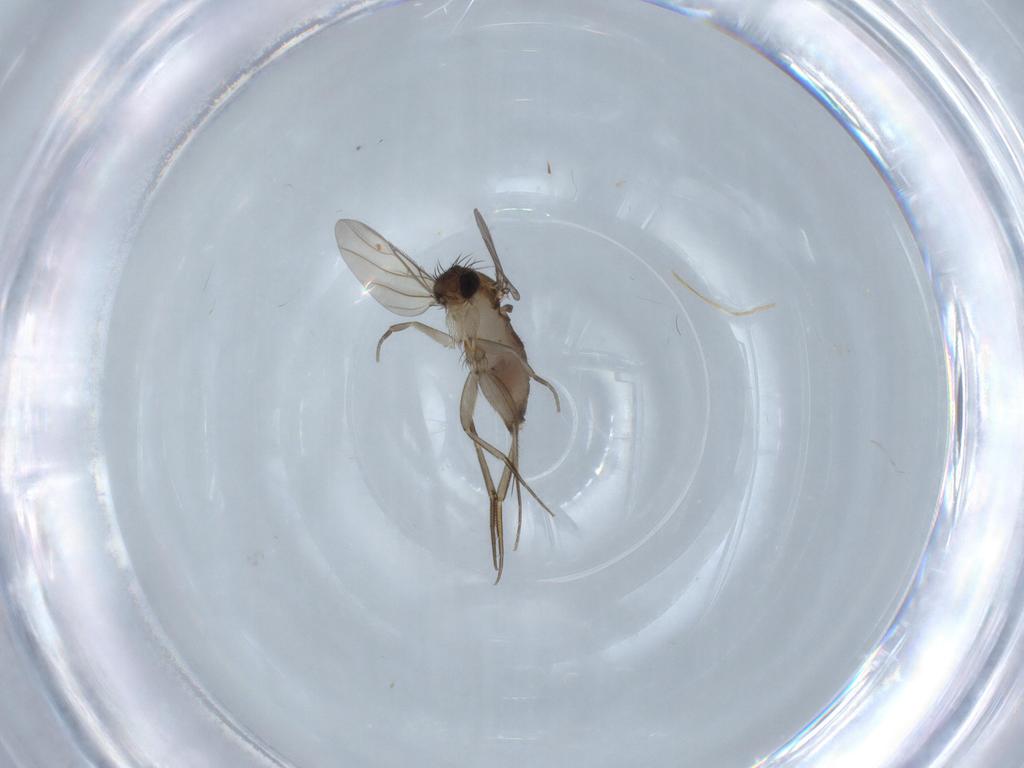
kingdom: Animalia
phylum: Arthropoda
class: Insecta
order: Diptera
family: Phoridae
